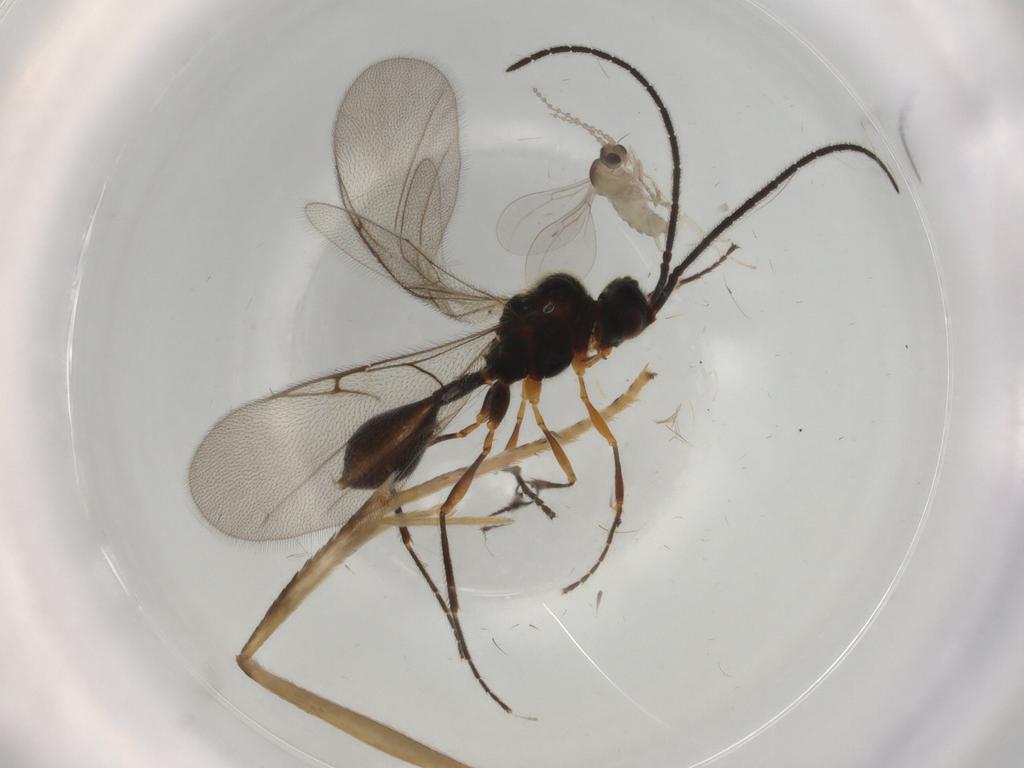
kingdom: Animalia
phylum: Arthropoda
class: Insecta
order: Diptera
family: Cecidomyiidae
